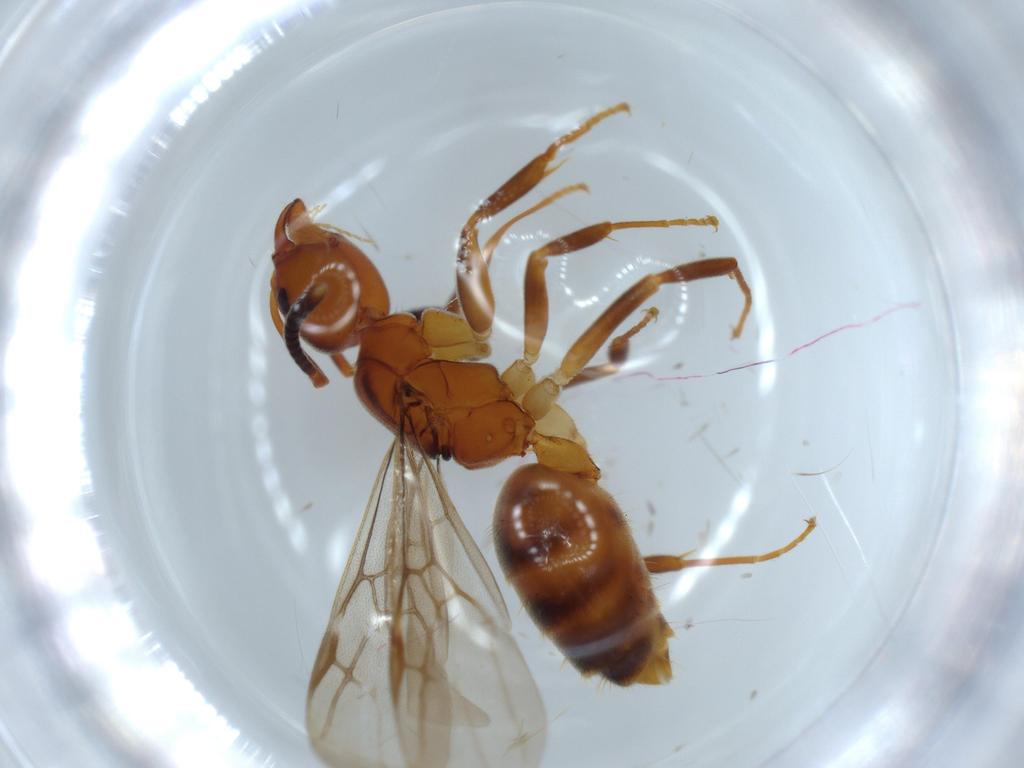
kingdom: Animalia
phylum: Arthropoda
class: Insecta
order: Hymenoptera
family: Formicidae
